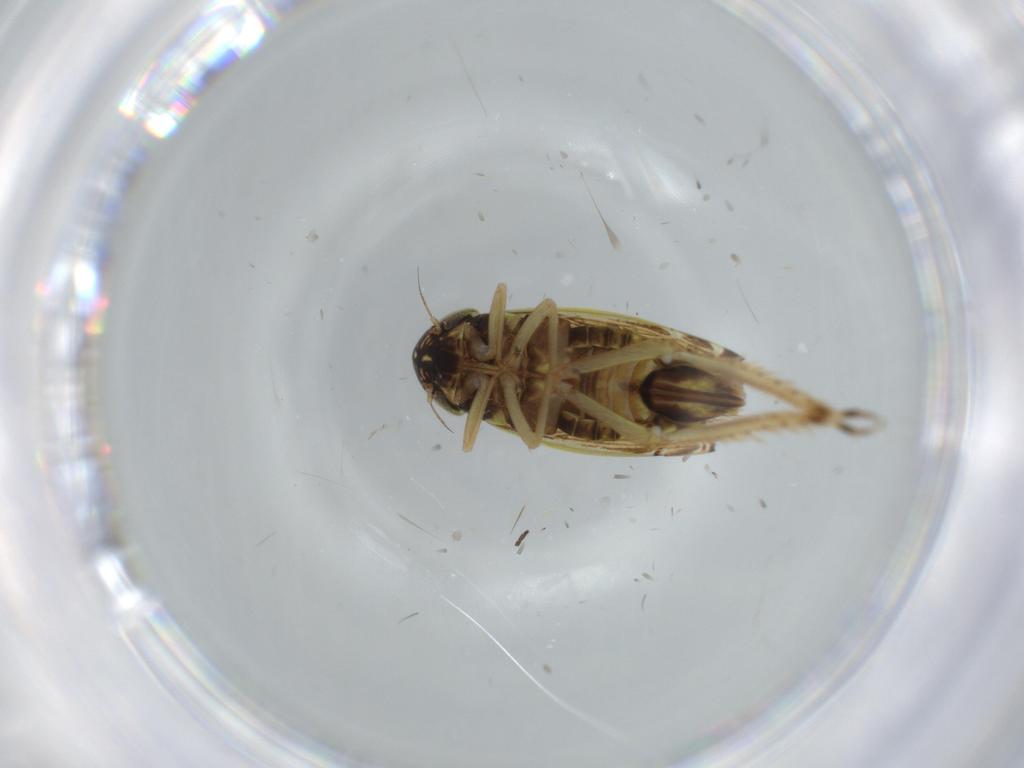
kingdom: Animalia
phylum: Arthropoda
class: Insecta
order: Hemiptera
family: Cicadellidae
